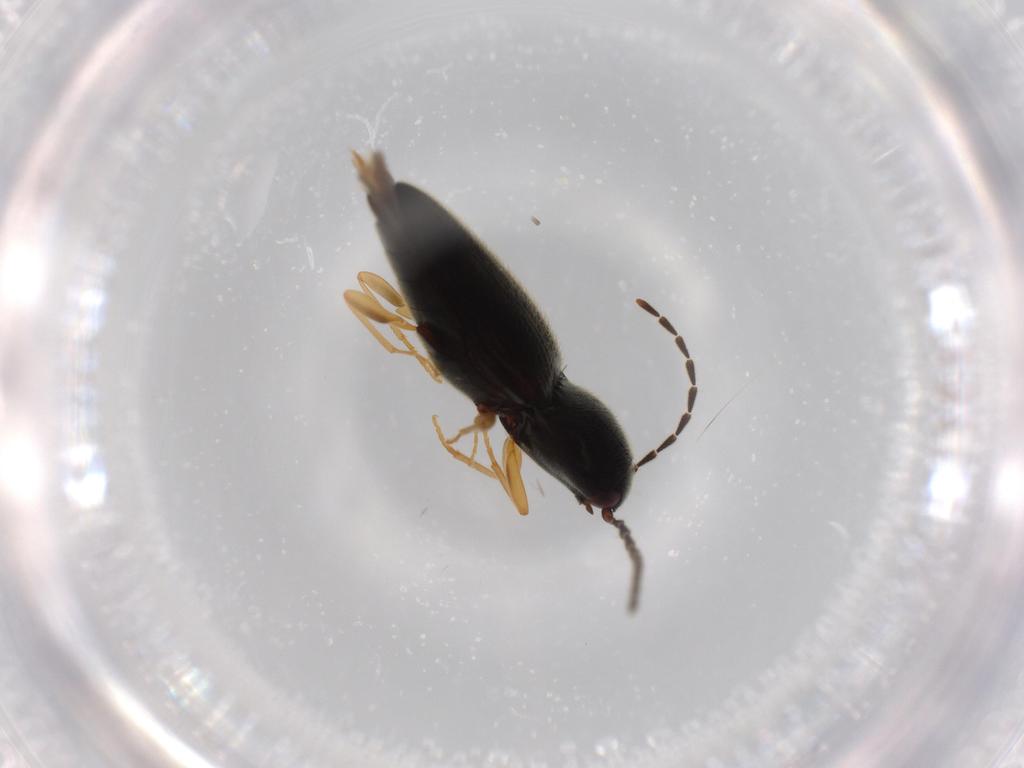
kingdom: Animalia
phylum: Arthropoda
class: Insecta
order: Coleoptera
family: Elateridae
